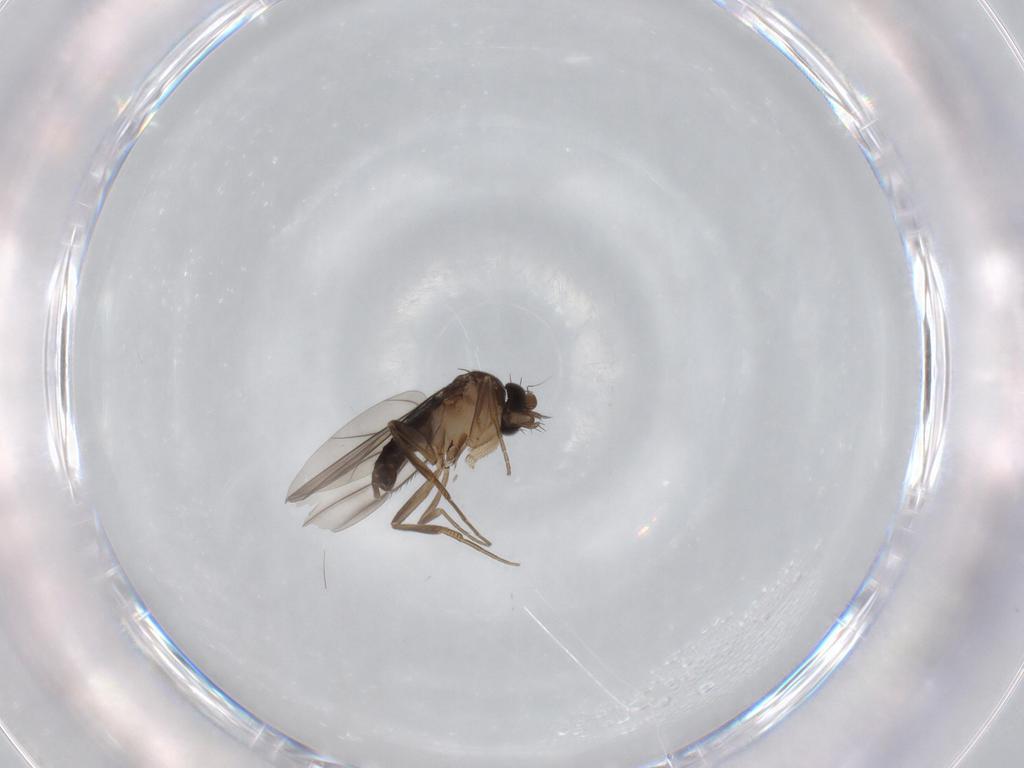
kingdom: Animalia
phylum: Arthropoda
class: Insecta
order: Diptera
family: Phoridae
